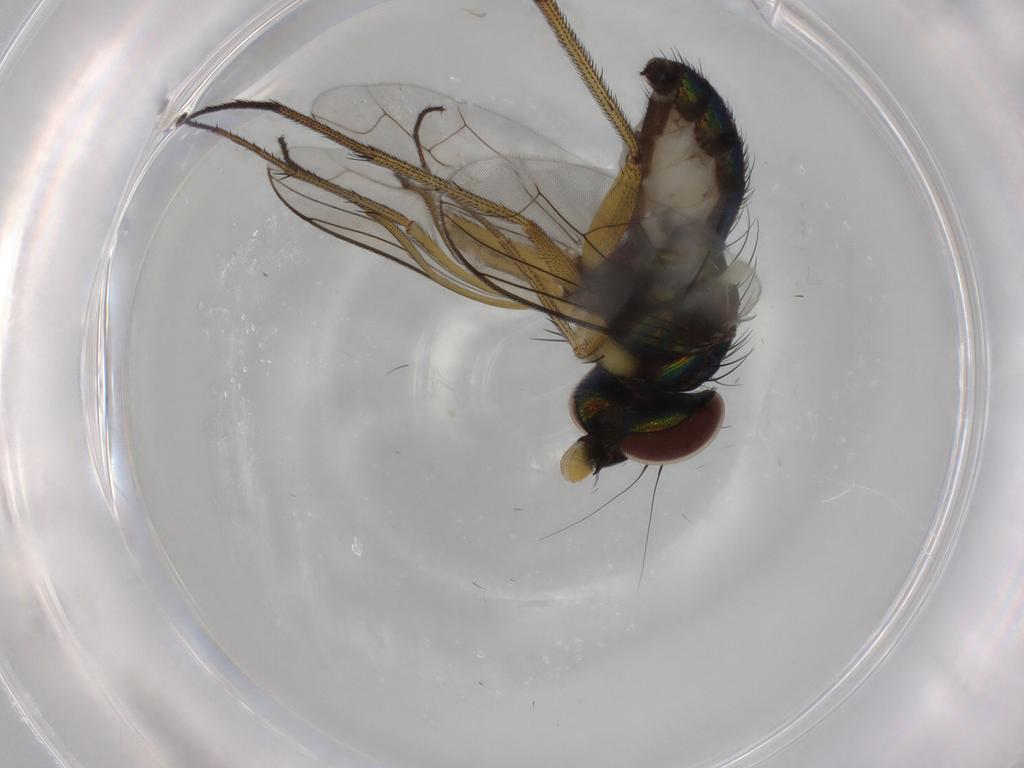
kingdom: Animalia
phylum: Arthropoda
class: Insecta
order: Diptera
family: Dolichopodidae
